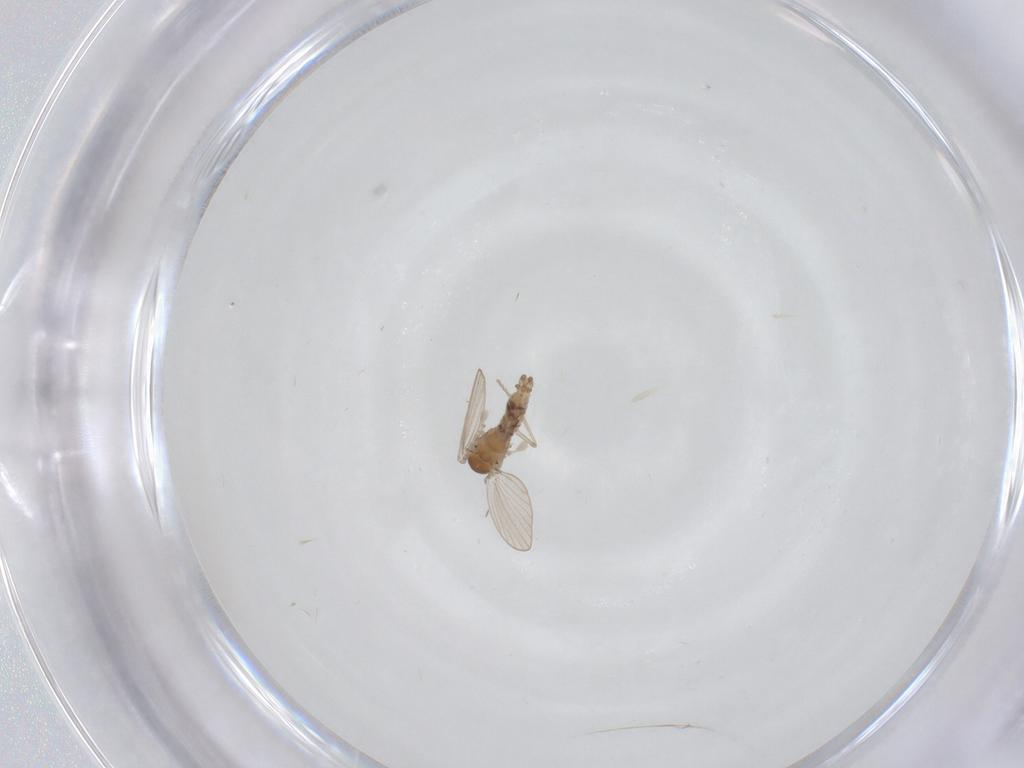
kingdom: Animalia
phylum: Arthropoda
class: Insecta
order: Diptera
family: Psychodidae
